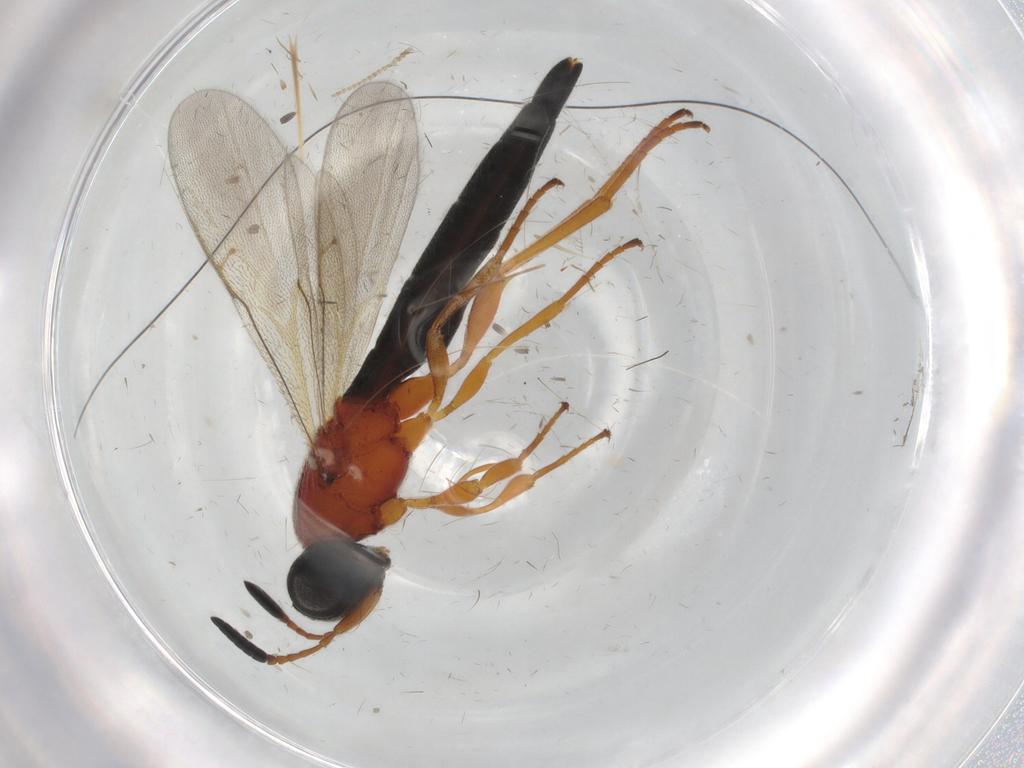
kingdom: Animalia
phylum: Arthropoda
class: Insecta
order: Hymenoptera
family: Scelionidae
